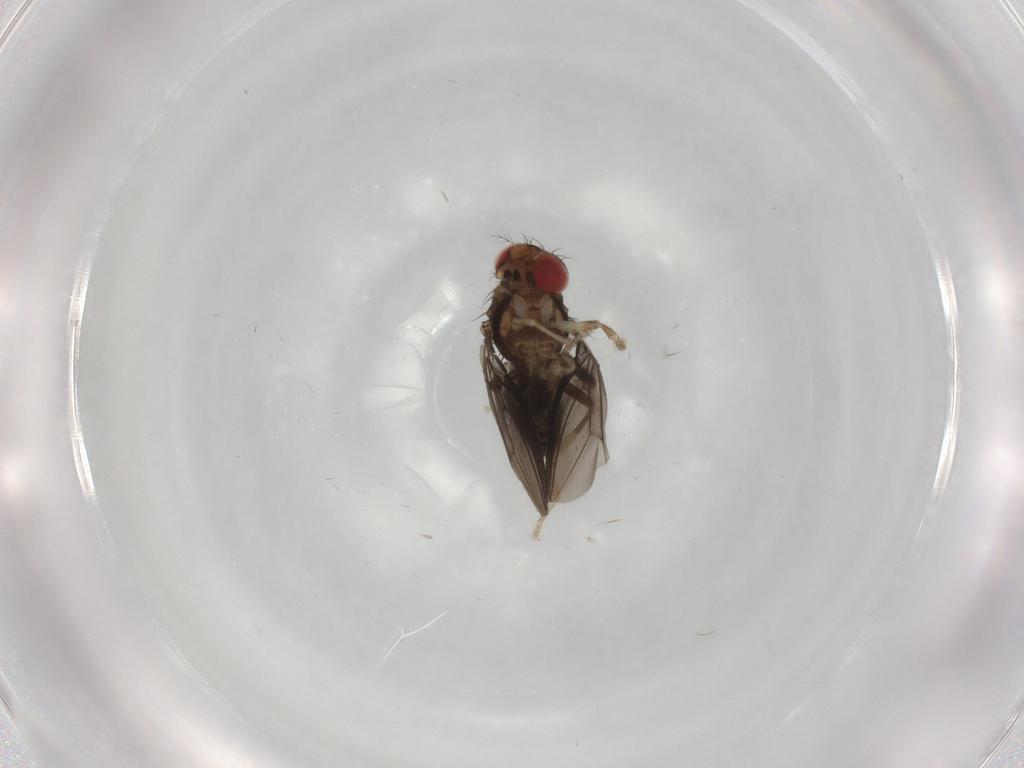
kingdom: Animalia
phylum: Arthropoda
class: Insecta
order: Diptera
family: Drosophilidae
